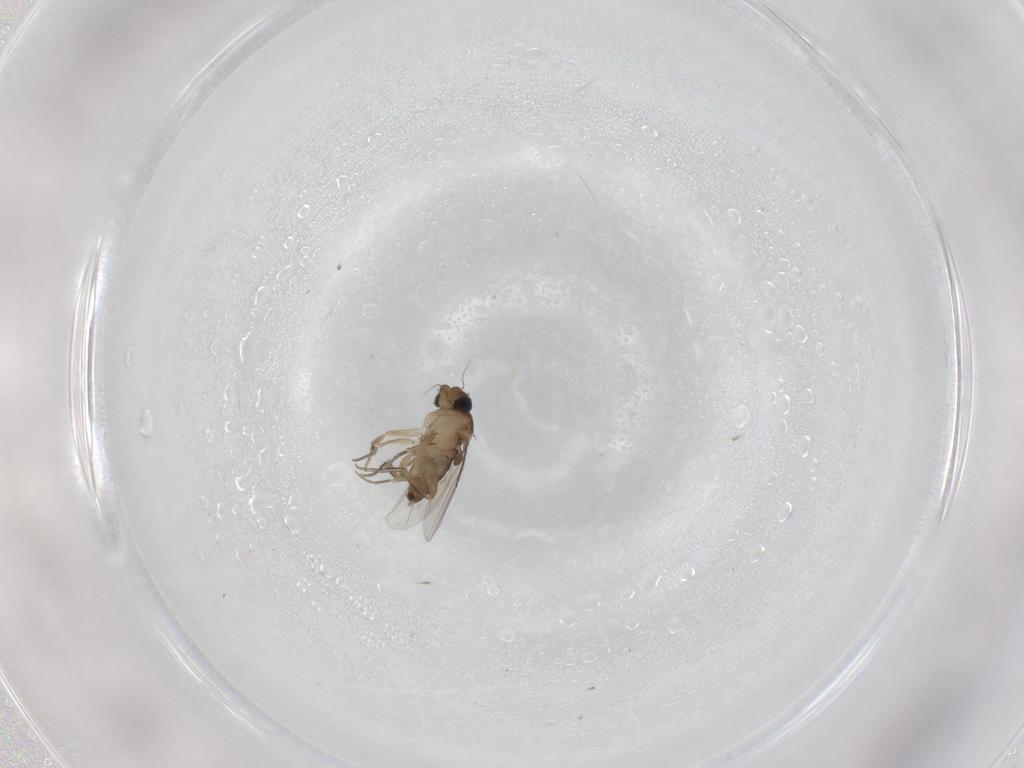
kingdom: Animalia
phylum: Arthropoda
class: Insecta
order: Diptera
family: Phoridae
